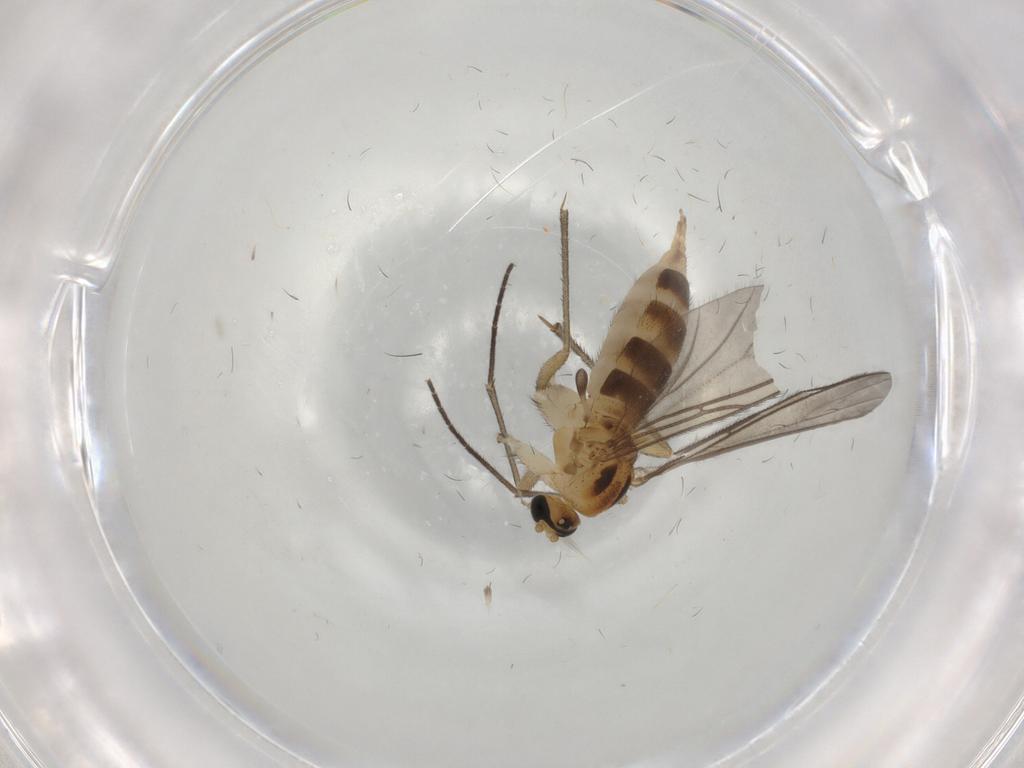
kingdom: Animalia
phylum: Arthropoda
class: Insecta
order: Diptera
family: Sciaridae
